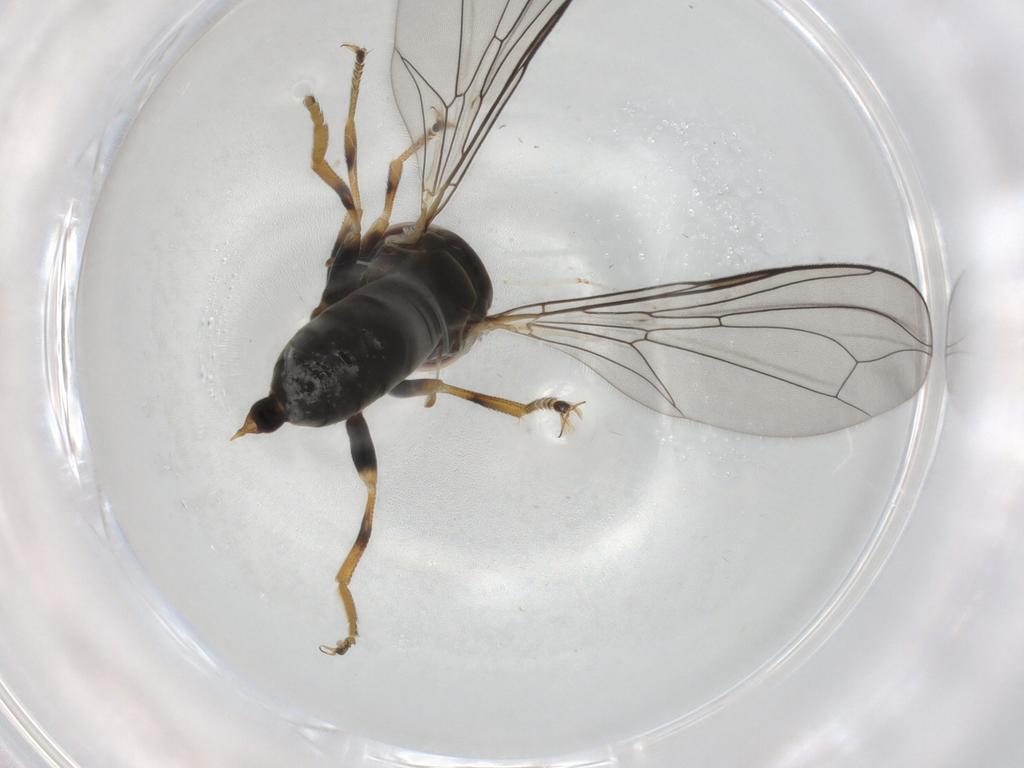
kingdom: Animalia
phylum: Arthropoda
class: Insecta
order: Diptera
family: Pipunculidae
